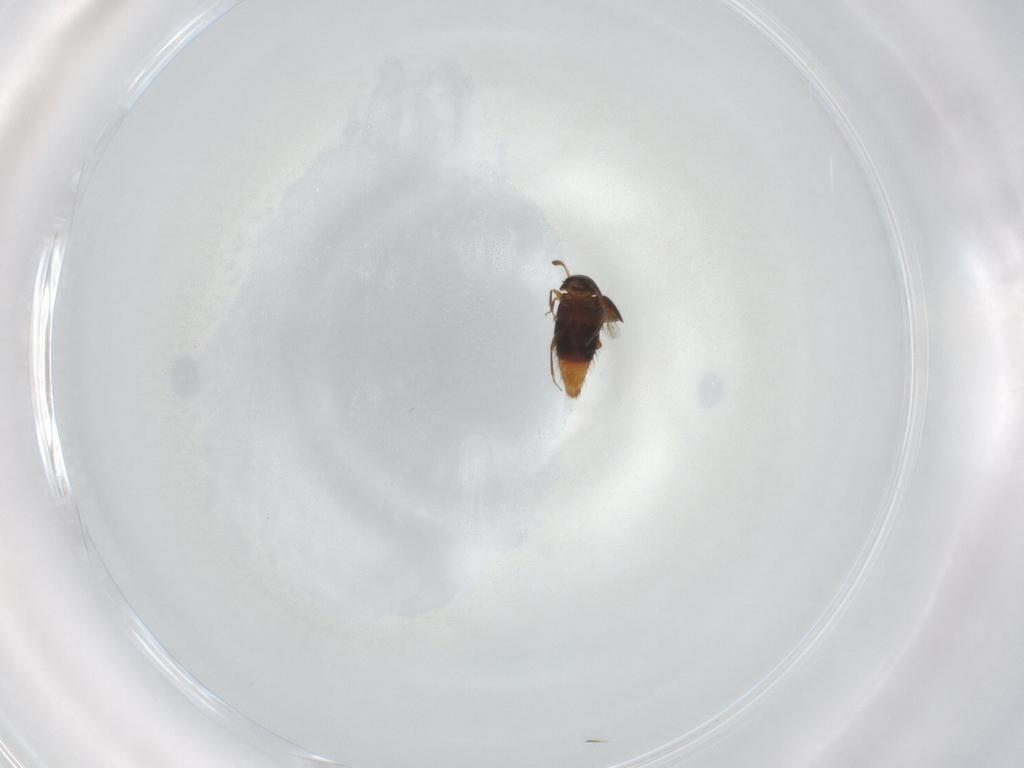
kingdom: Animalia
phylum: Arthropoda
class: Insecta
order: Coleoptera
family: Staphylinidae
